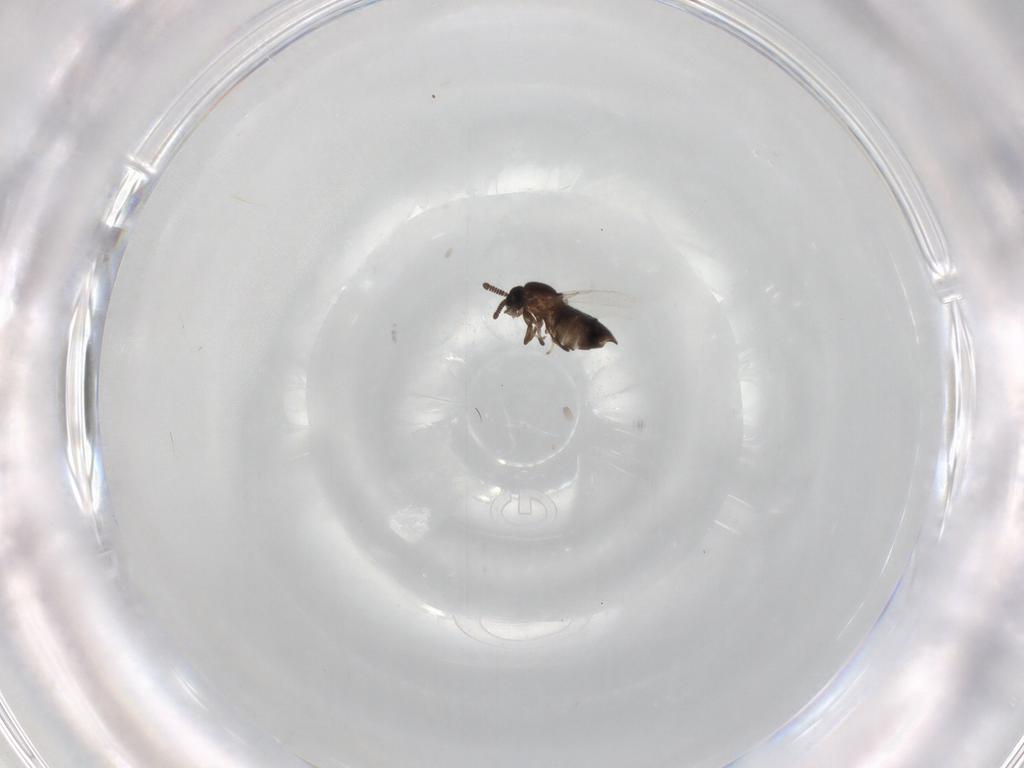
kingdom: Animalia
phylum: Arthropoda
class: Insecta
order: Diptera
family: Scatopsidae
